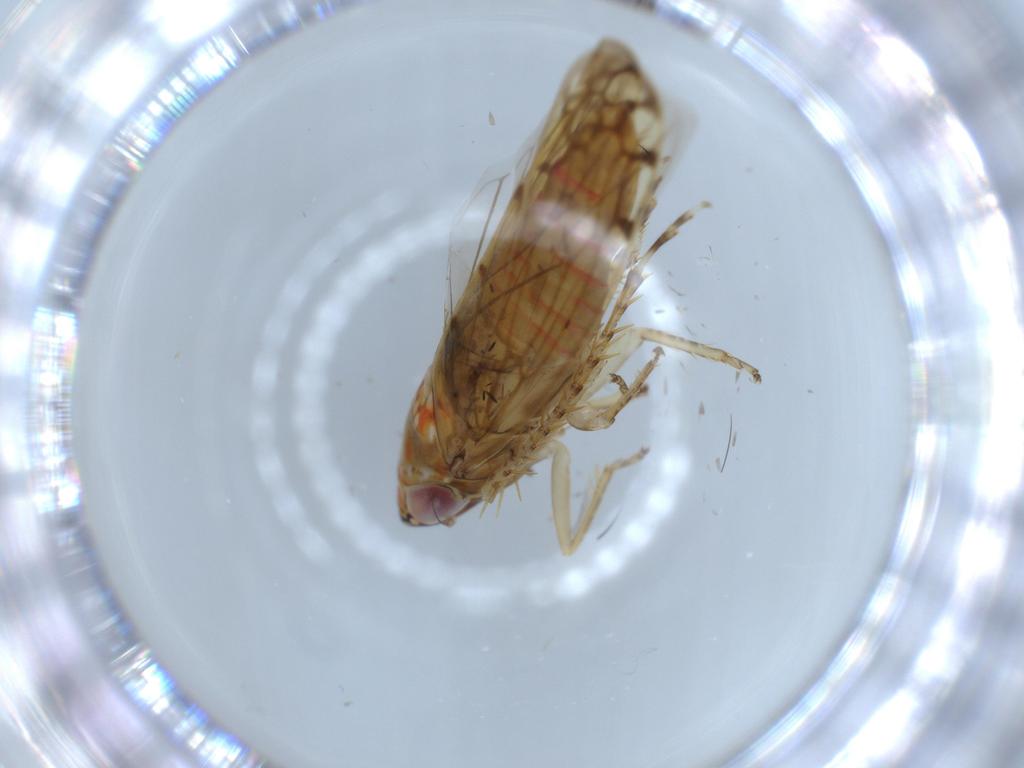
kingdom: Animalia
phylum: Arthropoda
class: Insecta
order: Hemiptera
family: Cicadellidae
